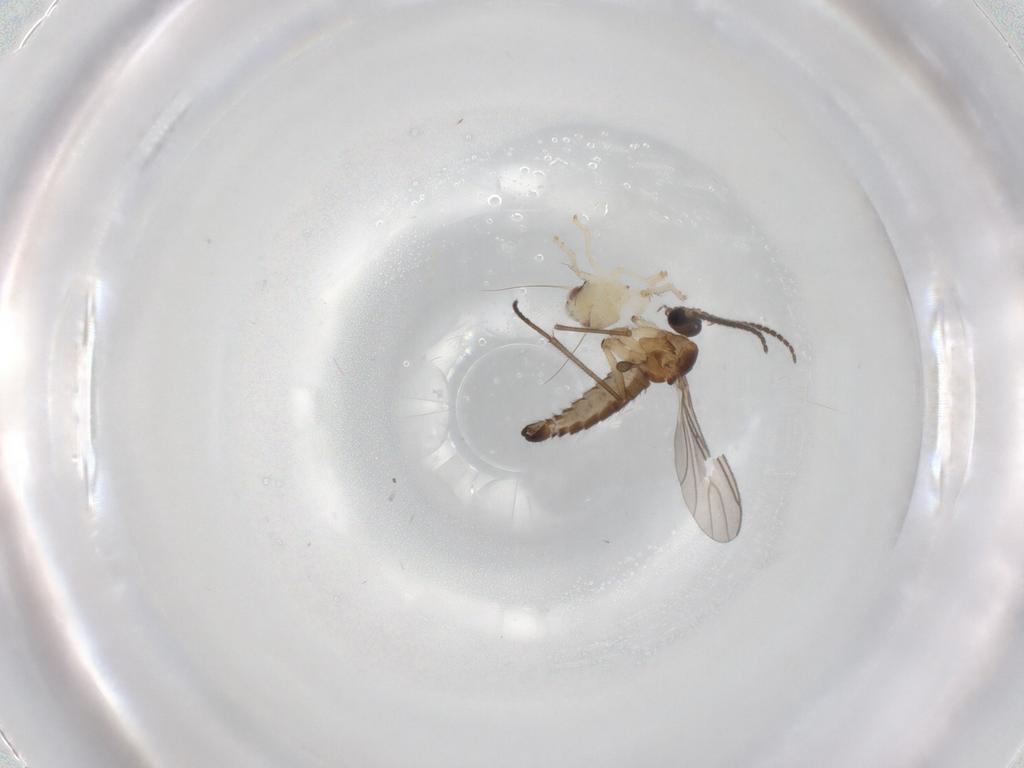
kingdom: Animalia
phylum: Arthropoda
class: Insecta
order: Diptera
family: Sciaridae
